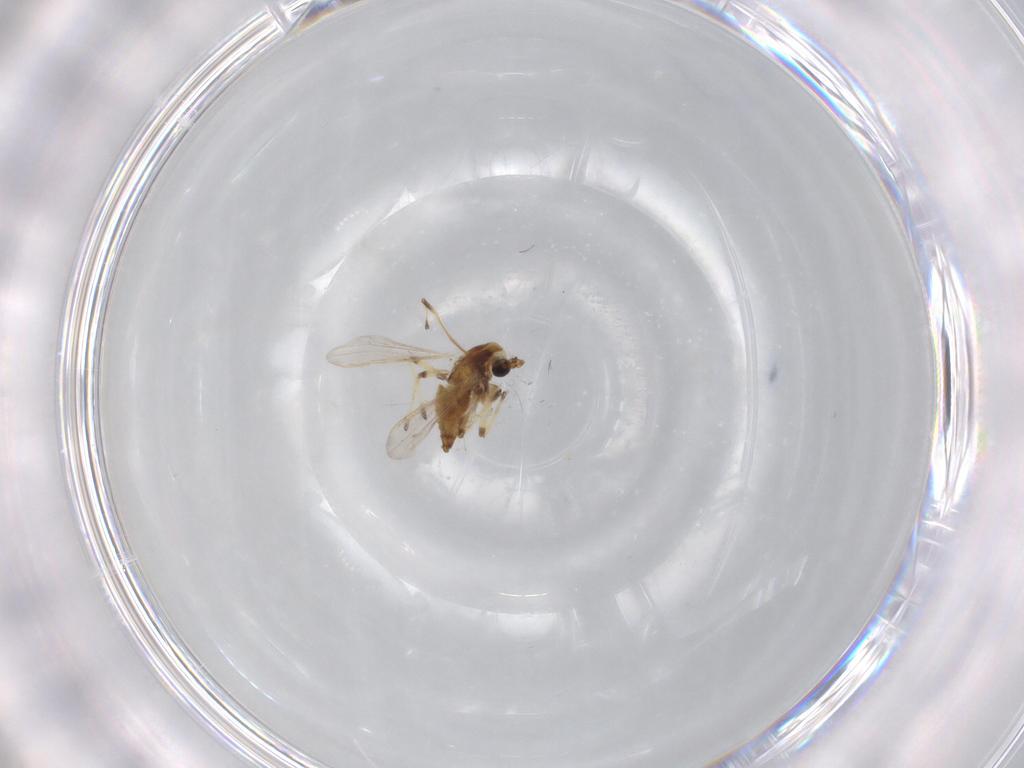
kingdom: Animalia
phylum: Arthropoda
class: Insecta
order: Diptera
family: Chironomidae
